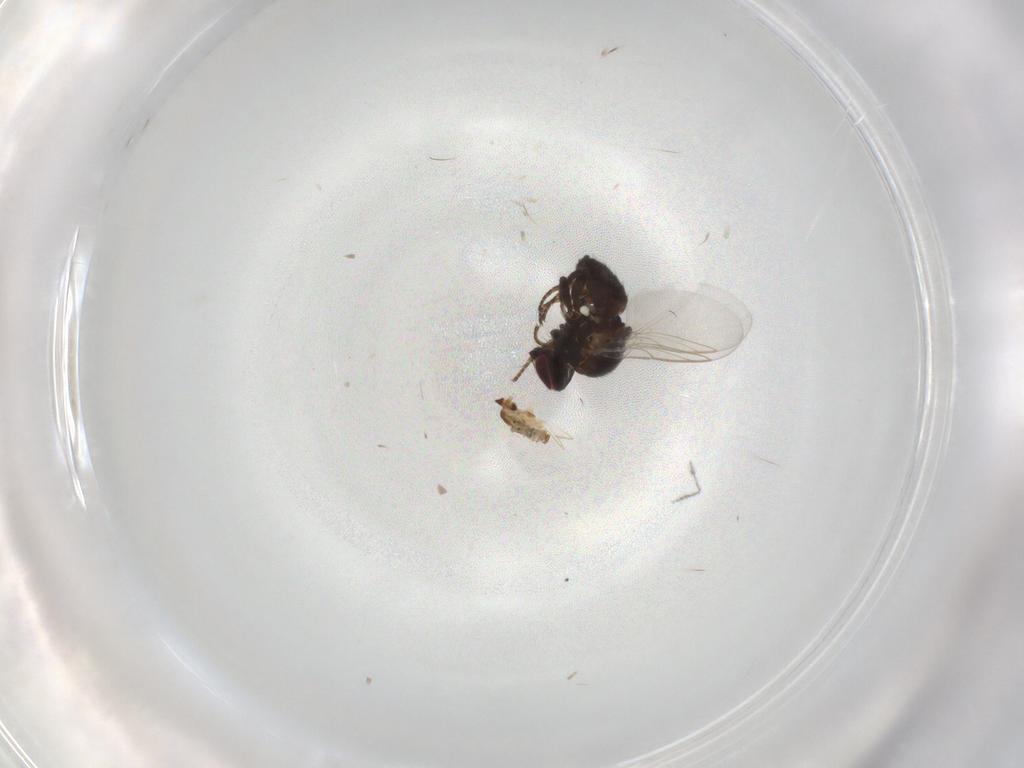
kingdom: Animalia
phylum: Arthropoda
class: Insecta
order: Diptera
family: Cecidomyiidae
